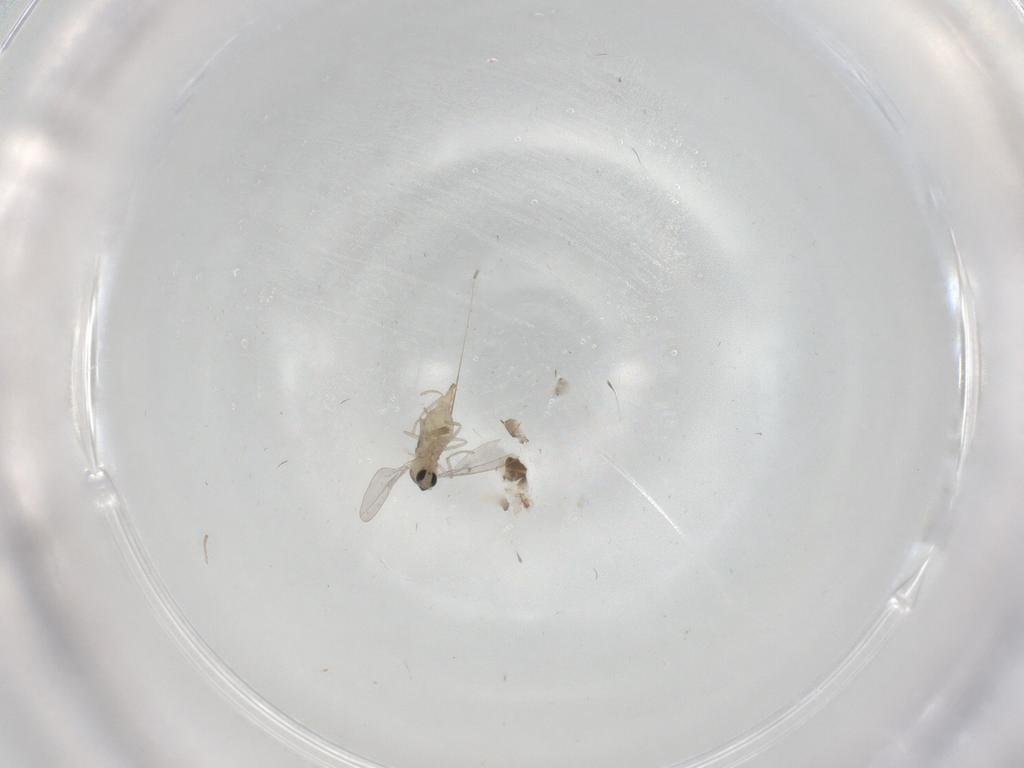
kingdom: Animalia
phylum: Arthropoda
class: Insecta
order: Diptera
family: Cecidomyiidae
